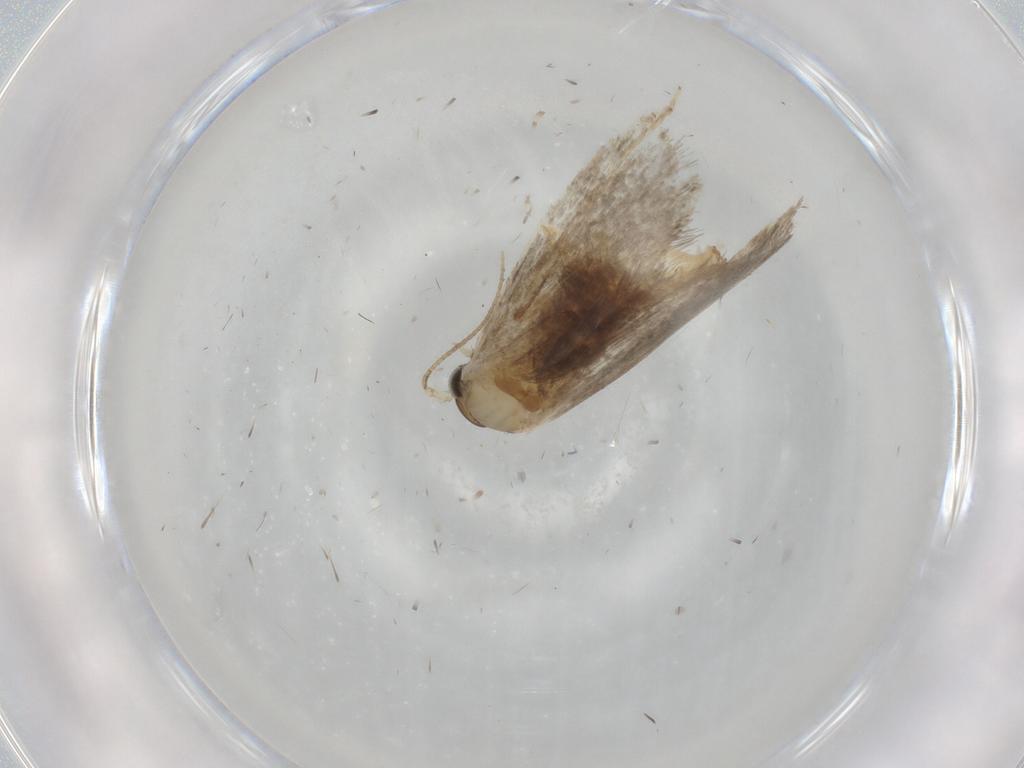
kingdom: Animalia
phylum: Arthropoda
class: Insecta
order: Lepidoptera
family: Tineidae
